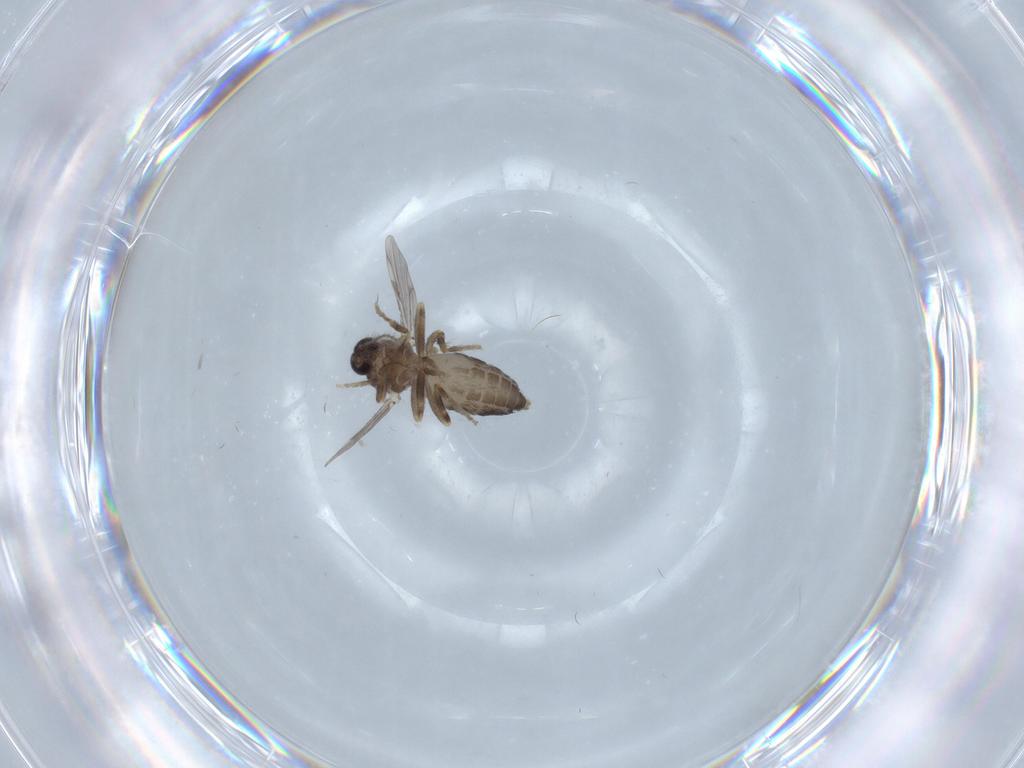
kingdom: Animalia
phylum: Arthropoda
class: Insecta
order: Diptera
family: Ceratopogonidae
